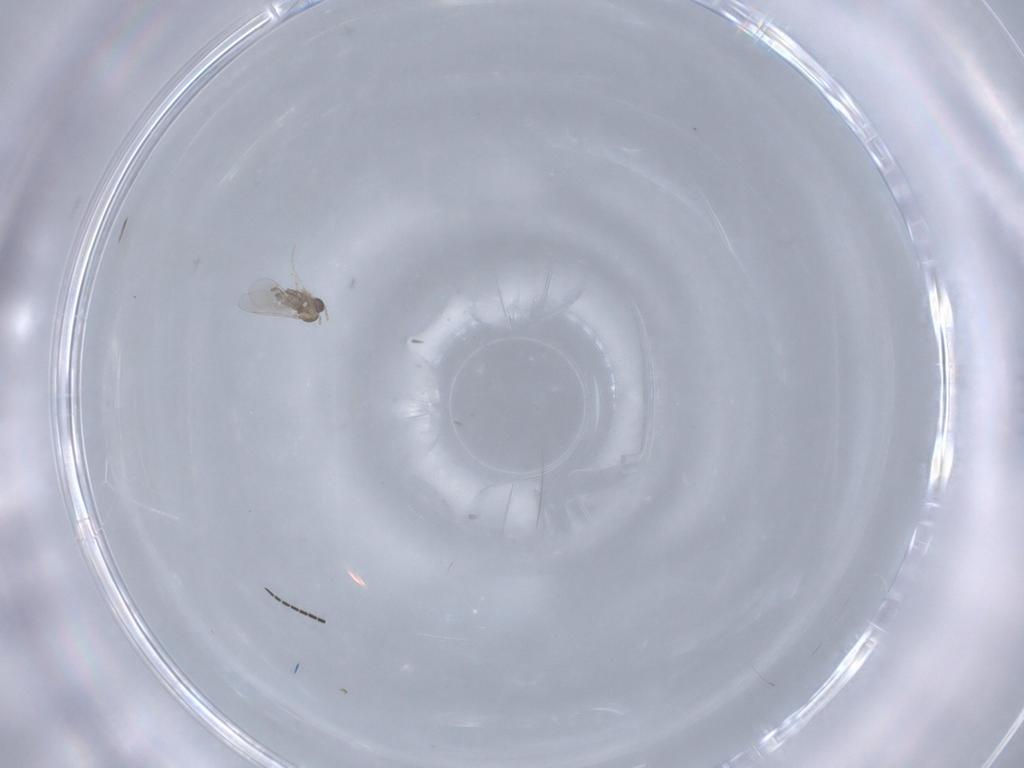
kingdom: Animalia
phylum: Arthropoda
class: Insecta
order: Diptera
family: Cecidomyiidae
